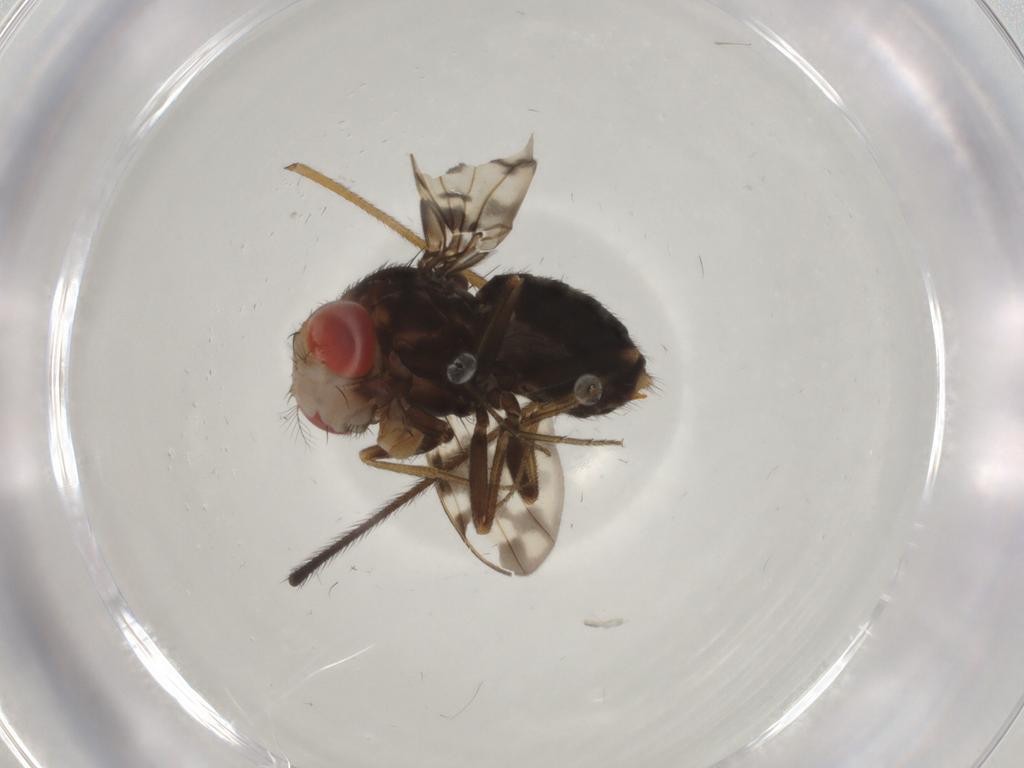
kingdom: Animalia
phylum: Arthropoda
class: Insecta
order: Diptera
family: Drosophilidae
